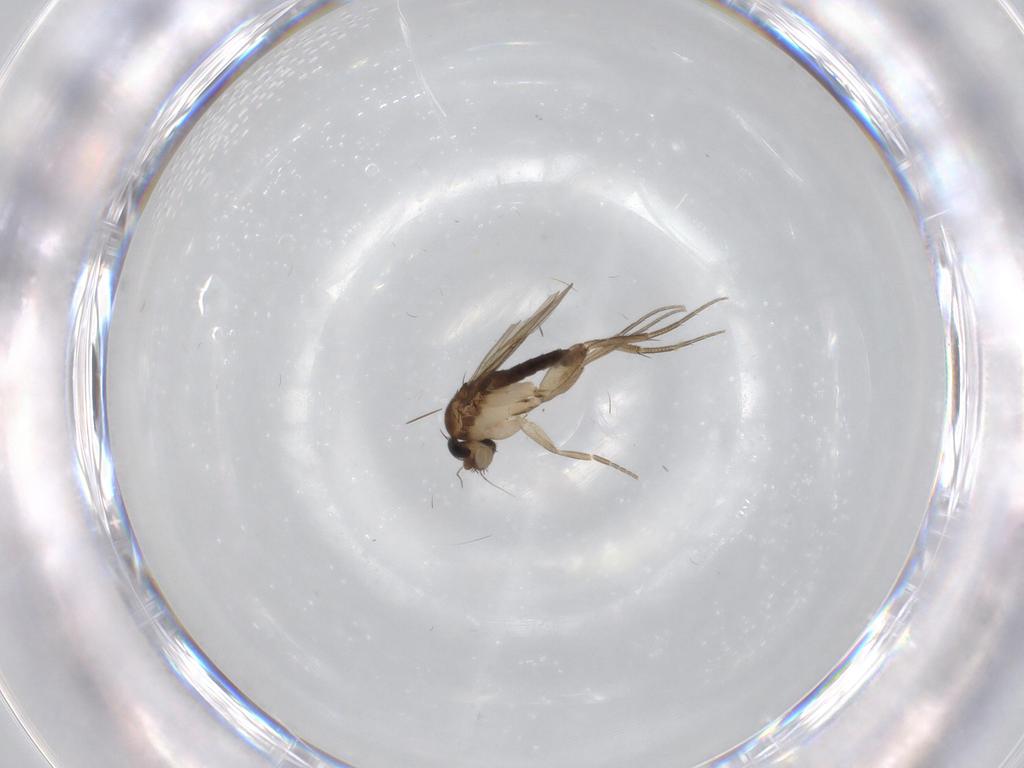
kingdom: Animalia
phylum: Arthropoda
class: Insecta
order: Diptera
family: Phoridae
